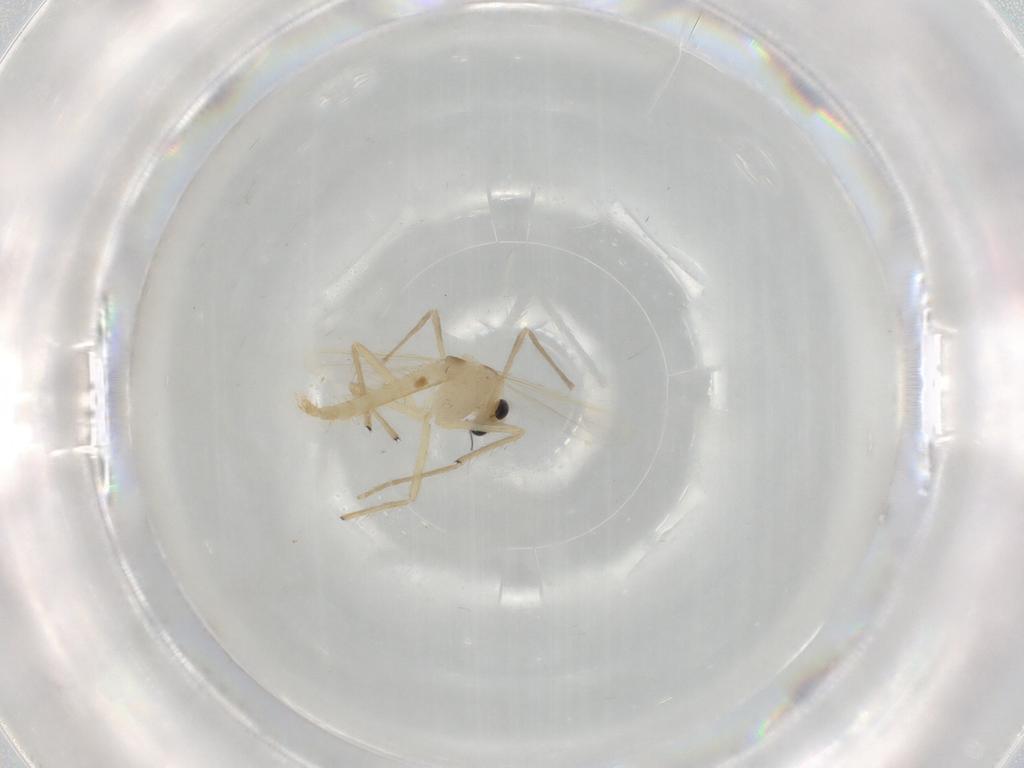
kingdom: Animalia
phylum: Arthropoda
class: Insecta
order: Diptera
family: Chironomidae
